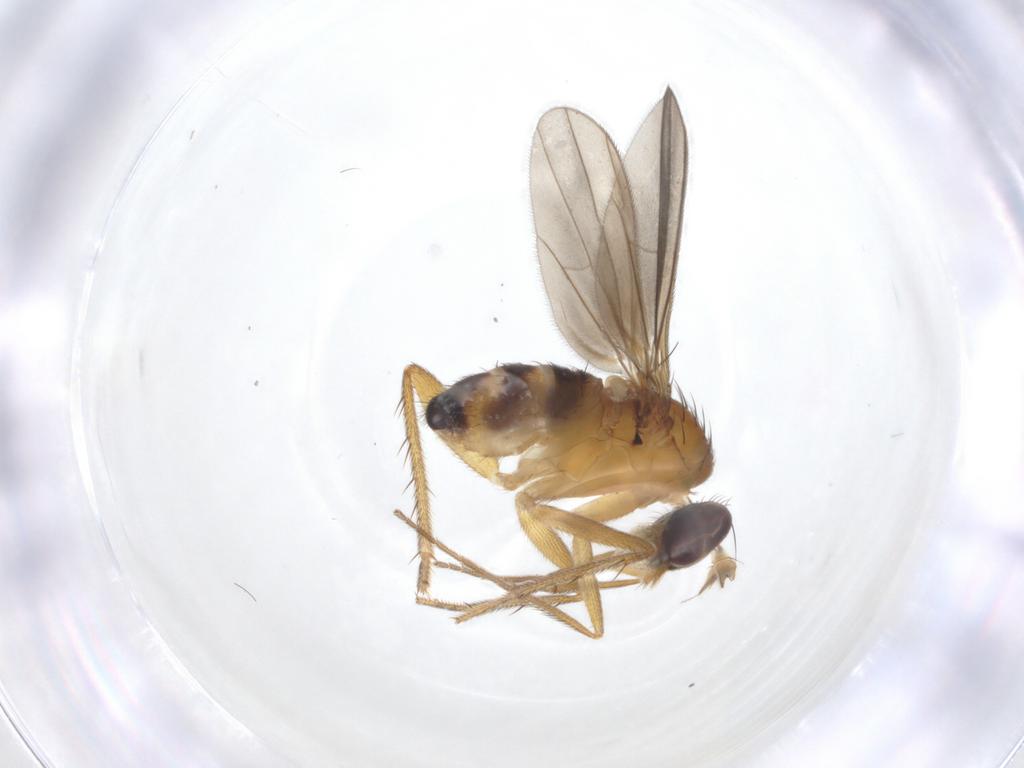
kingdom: Animalia
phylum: Arthropoda
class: Insecta
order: Diptera
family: Dolichopodidae
